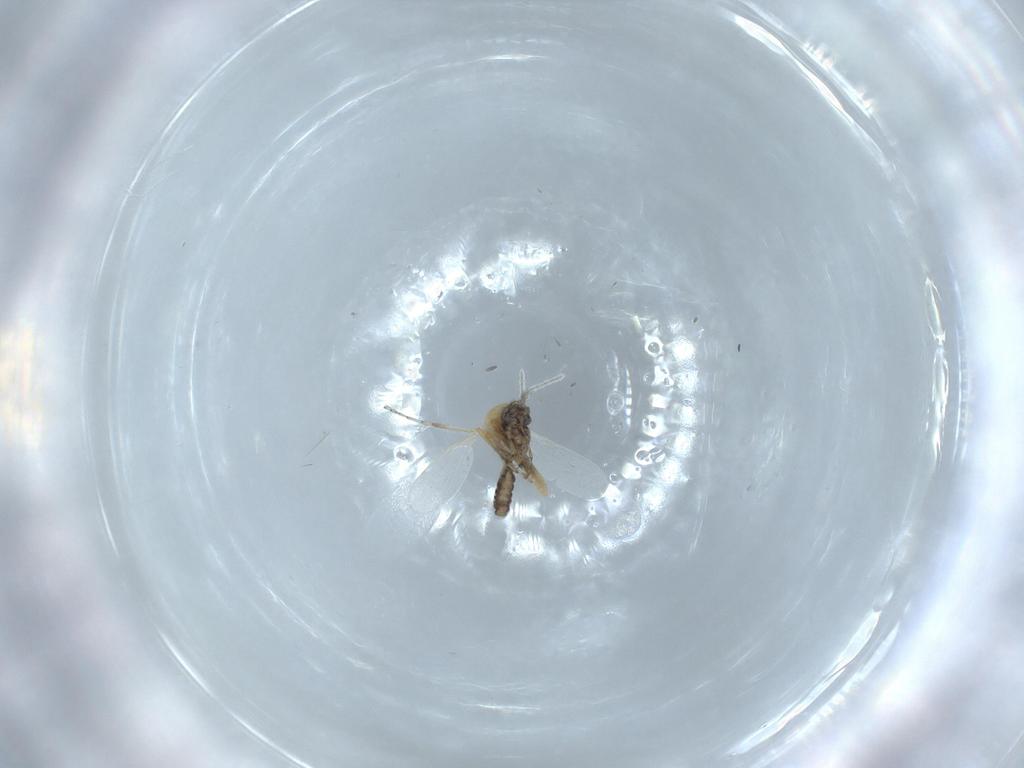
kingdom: Animalia
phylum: Arthropoda
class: Insecta
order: Diptera
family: Ceratopogonidae
